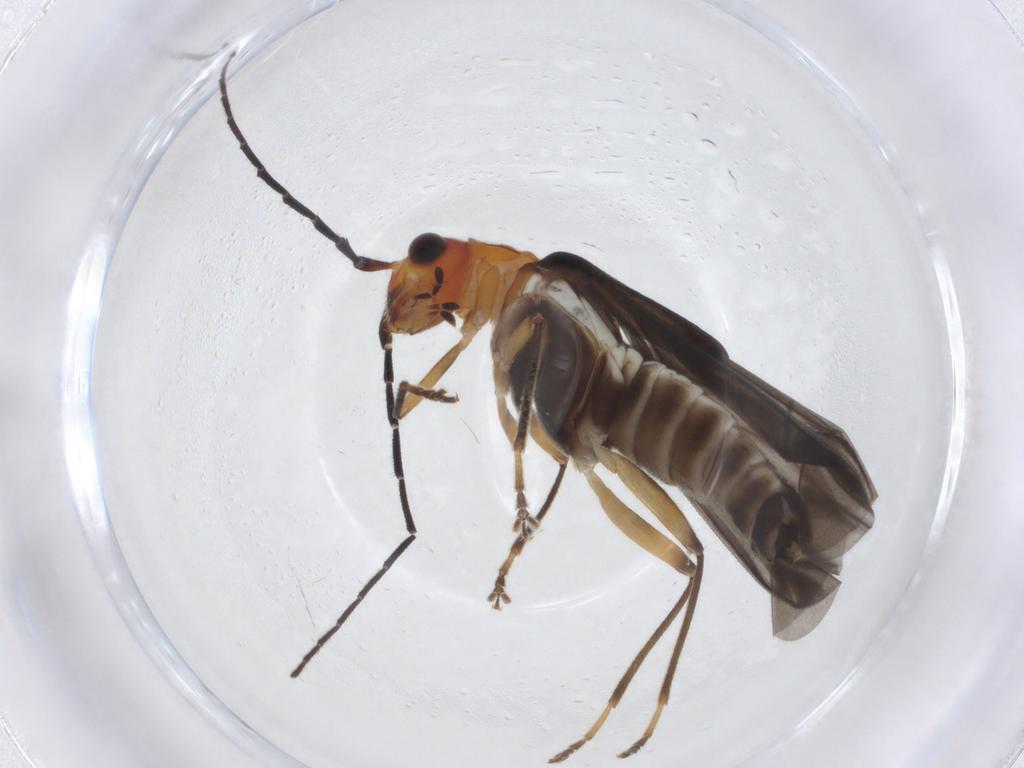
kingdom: Animalia
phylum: Arthropoda
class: Insecta
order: Coleoptera
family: Cantharidae
